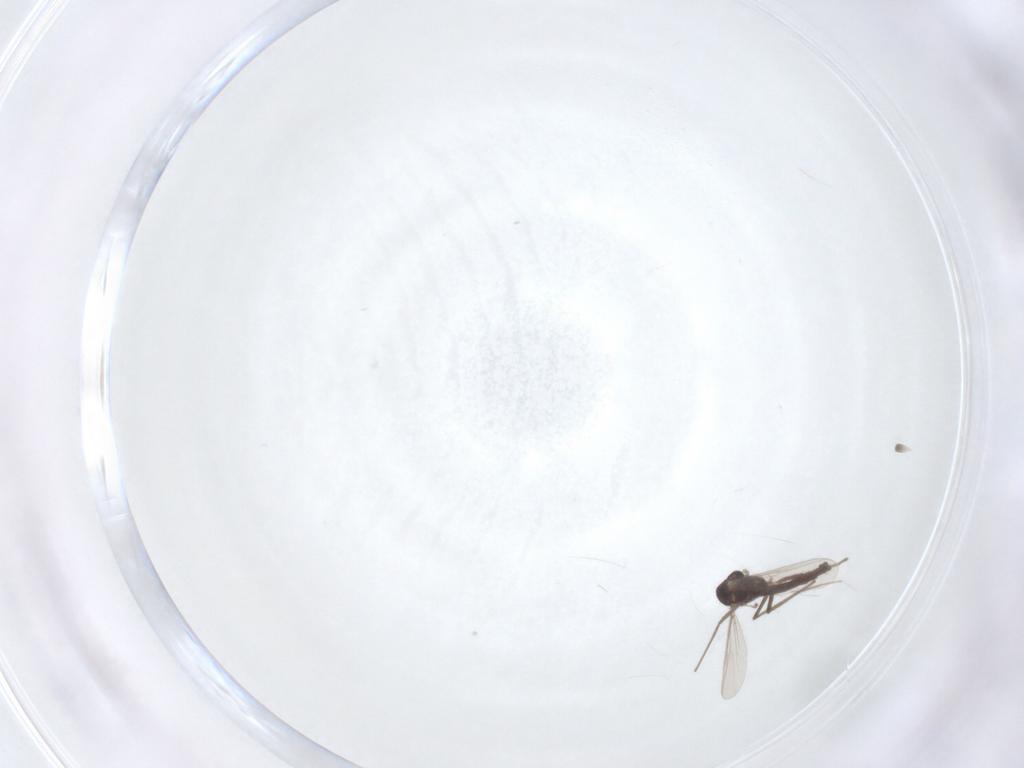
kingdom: Animalia
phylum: Arthropoda
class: Insecta
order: Diptera
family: Chironomidae
